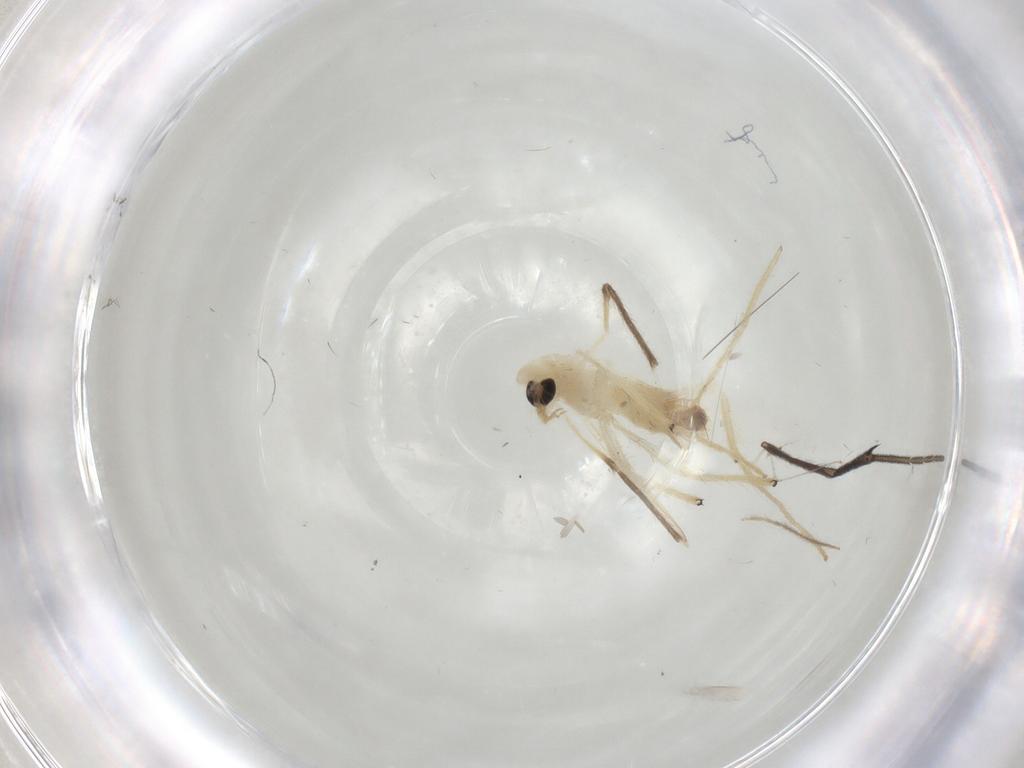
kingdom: Animalia
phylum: Arthropoda
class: Insecta
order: Diptera
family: Chironomidae
